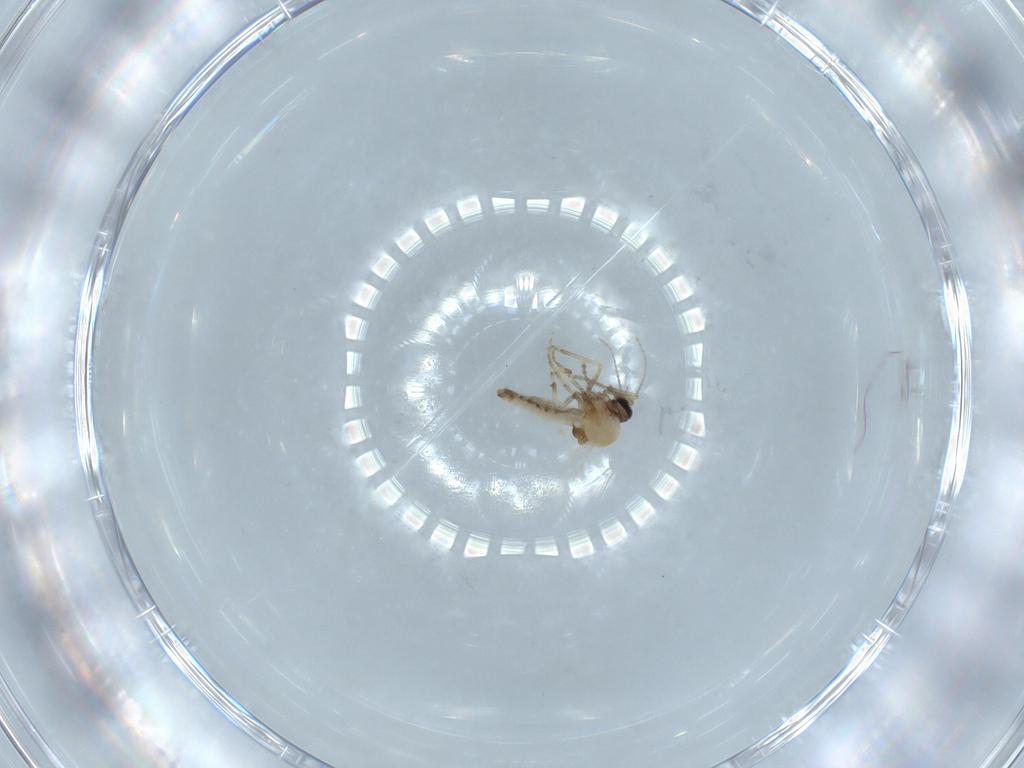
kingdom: Animalia
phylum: Arthropoda
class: Insecta
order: Diptera
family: Ceratopogonidae
